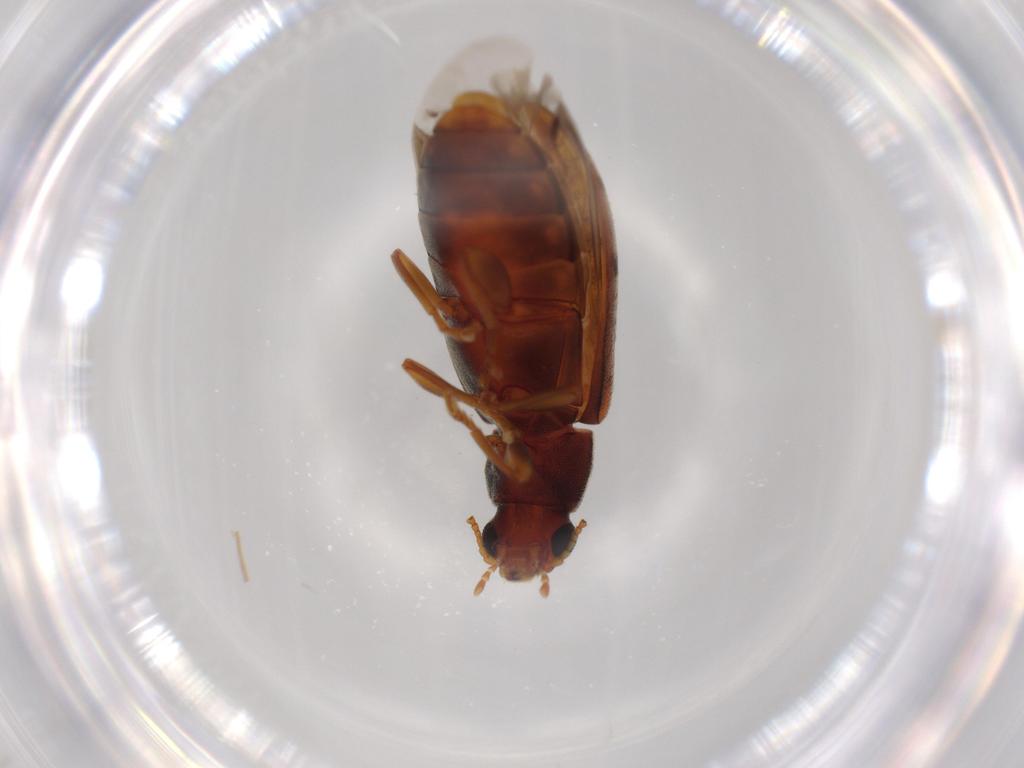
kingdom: Animalia
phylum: Arthropoda
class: Insecta
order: Coleoptera
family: Mycteridae
